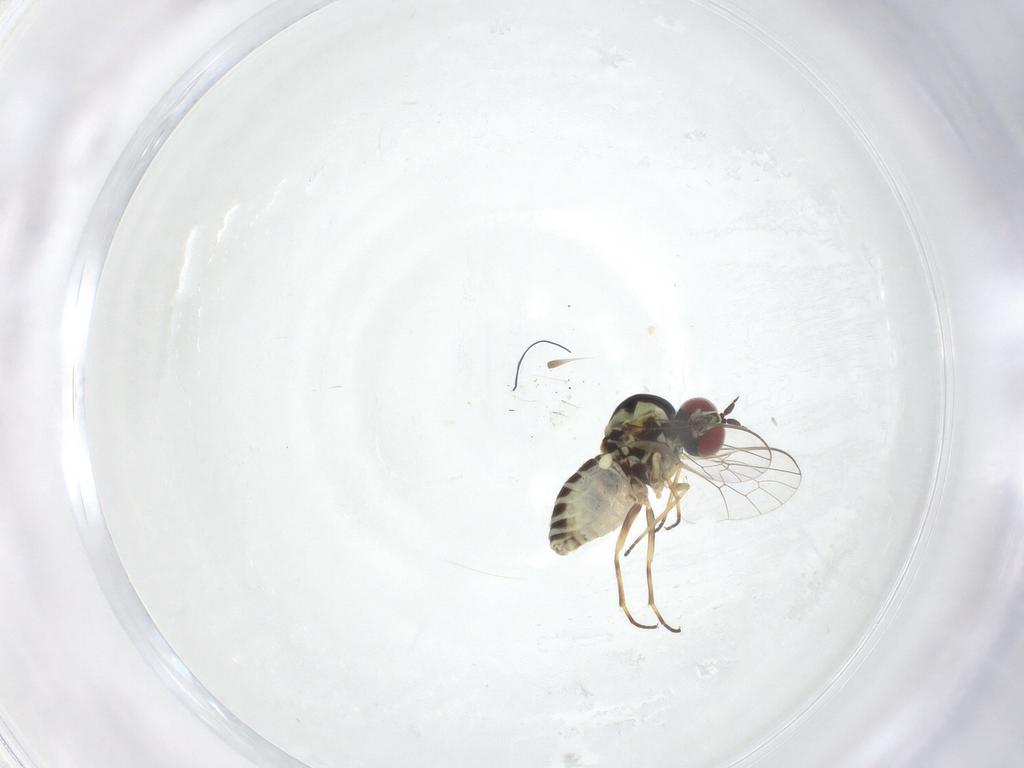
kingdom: Animalia
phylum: Arthropoda
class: Insecta
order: Diptera
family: Bombyliidae
